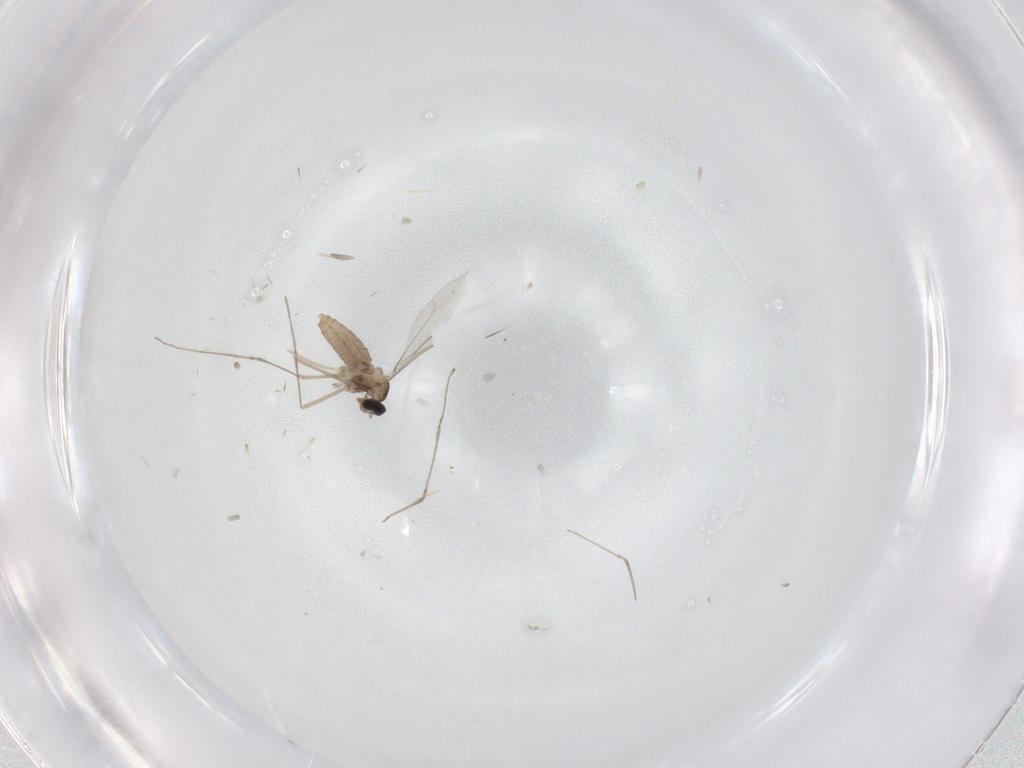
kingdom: Animalia
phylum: Arthropoda
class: Insecta
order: Diptera
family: Cecidomyiidae
